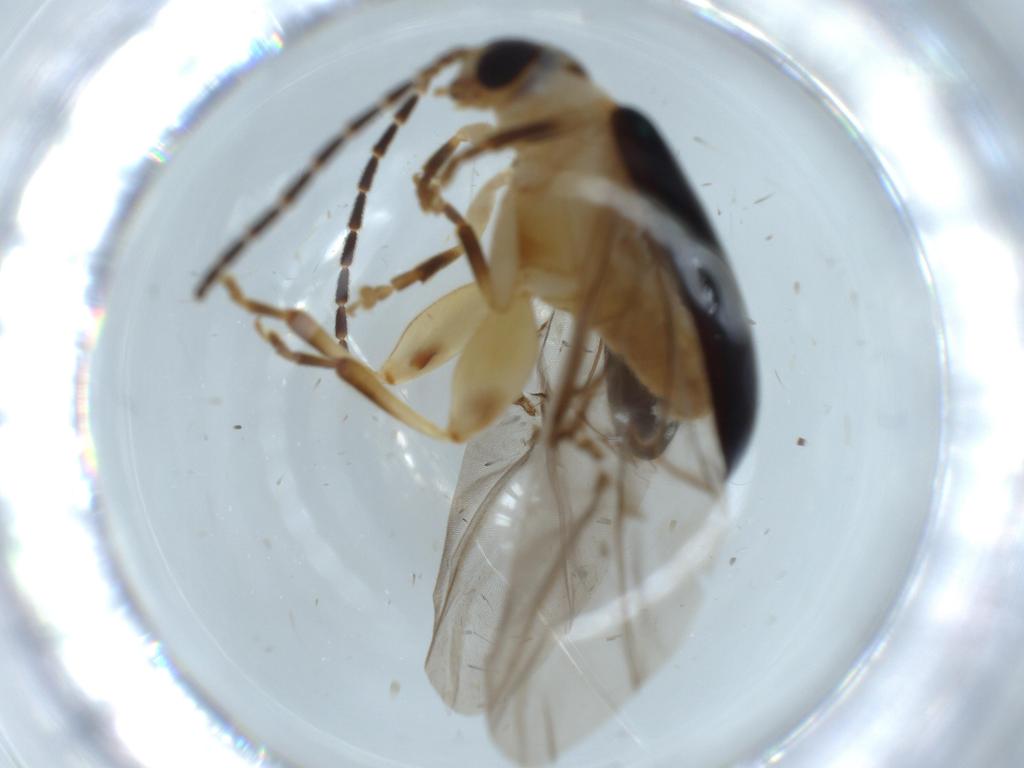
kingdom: Animalia
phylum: Arthropoda
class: Insecta
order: Coleoptera
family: Chrysomelidae
